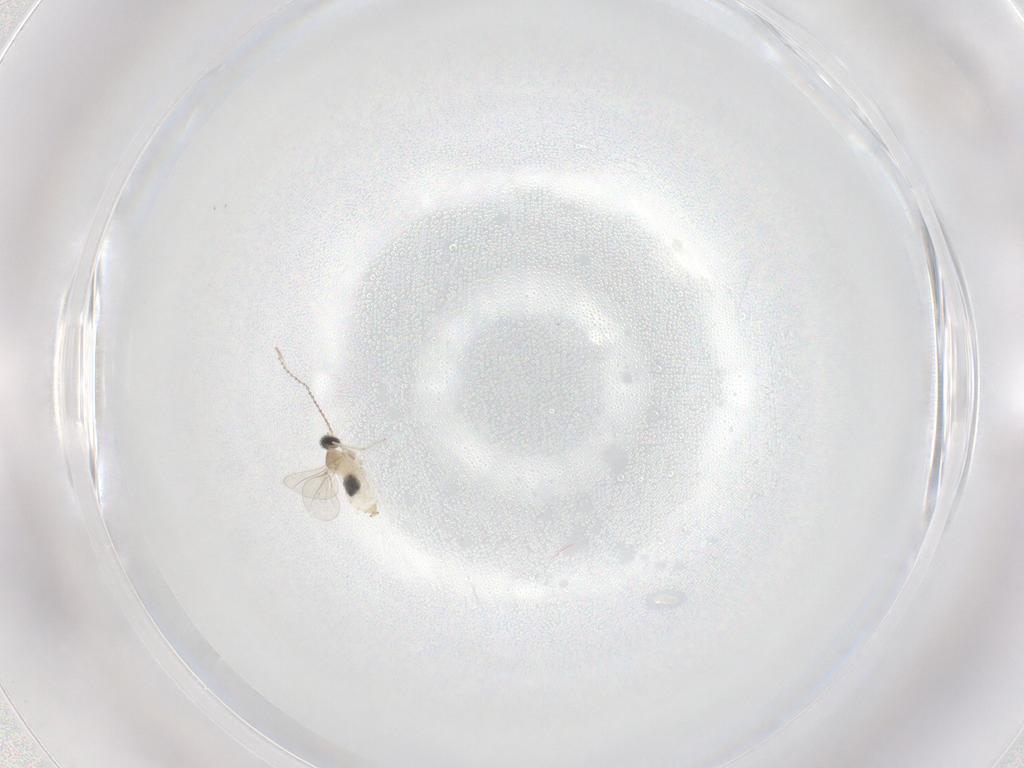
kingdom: Animalia
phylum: Arthropoda
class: Insecta
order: Diptera
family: Cecidomyiidae
